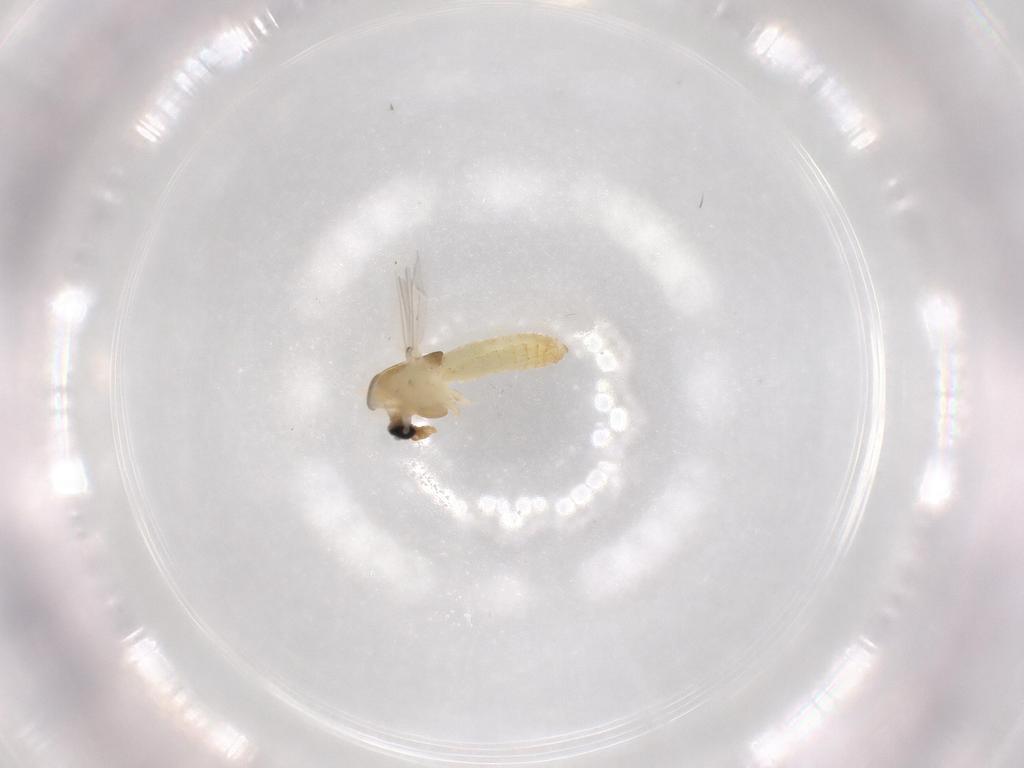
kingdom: Animalia
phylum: Arthropoda
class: Insecta
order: Diptera
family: Chironomidae
